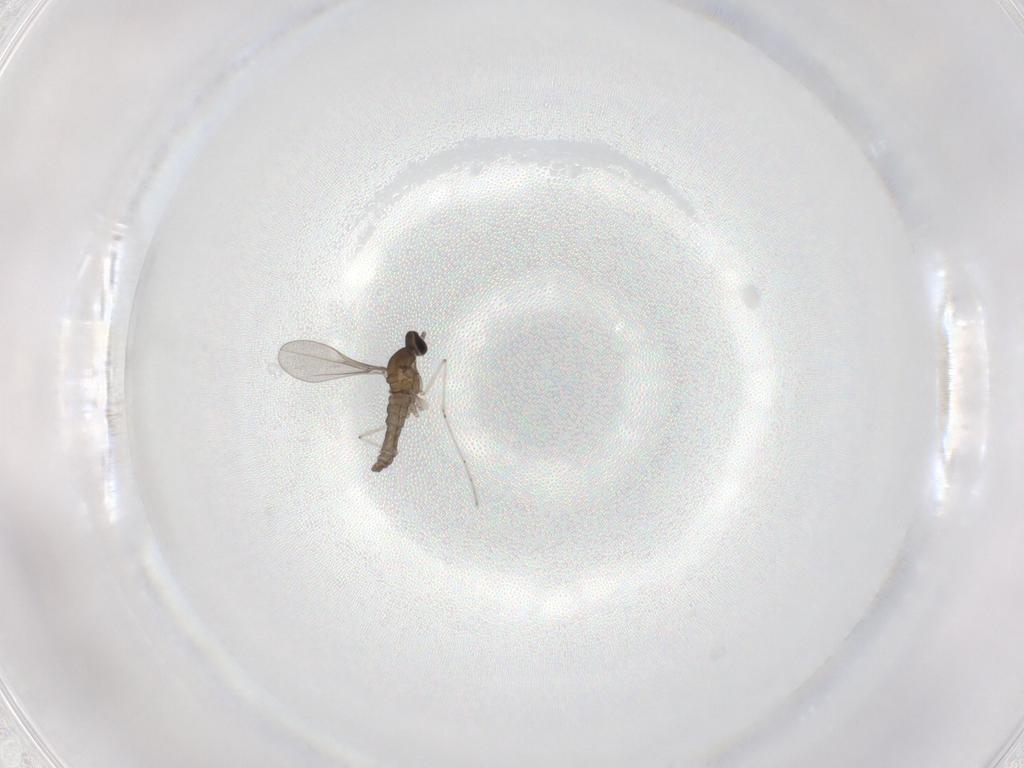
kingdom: Animalia
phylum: Arthropoda
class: Insecta
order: Diptera
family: Cecidomyiidae
